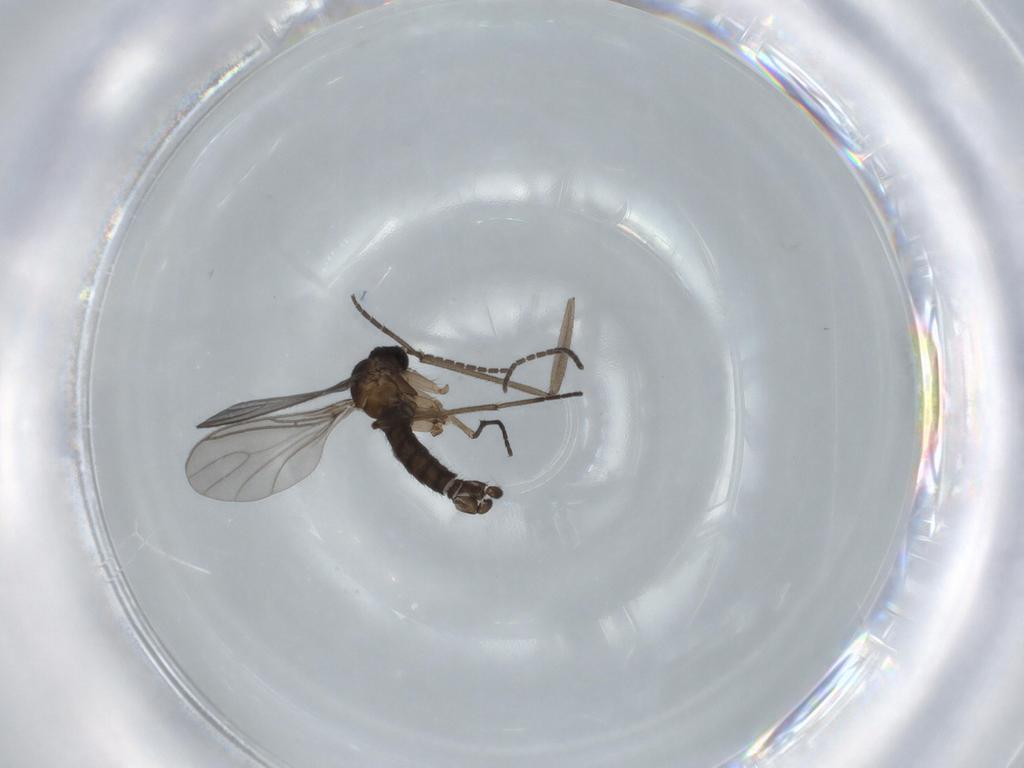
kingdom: Animalia
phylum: Arthropoda
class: Insecta
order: Diptera
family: Sciaridae
